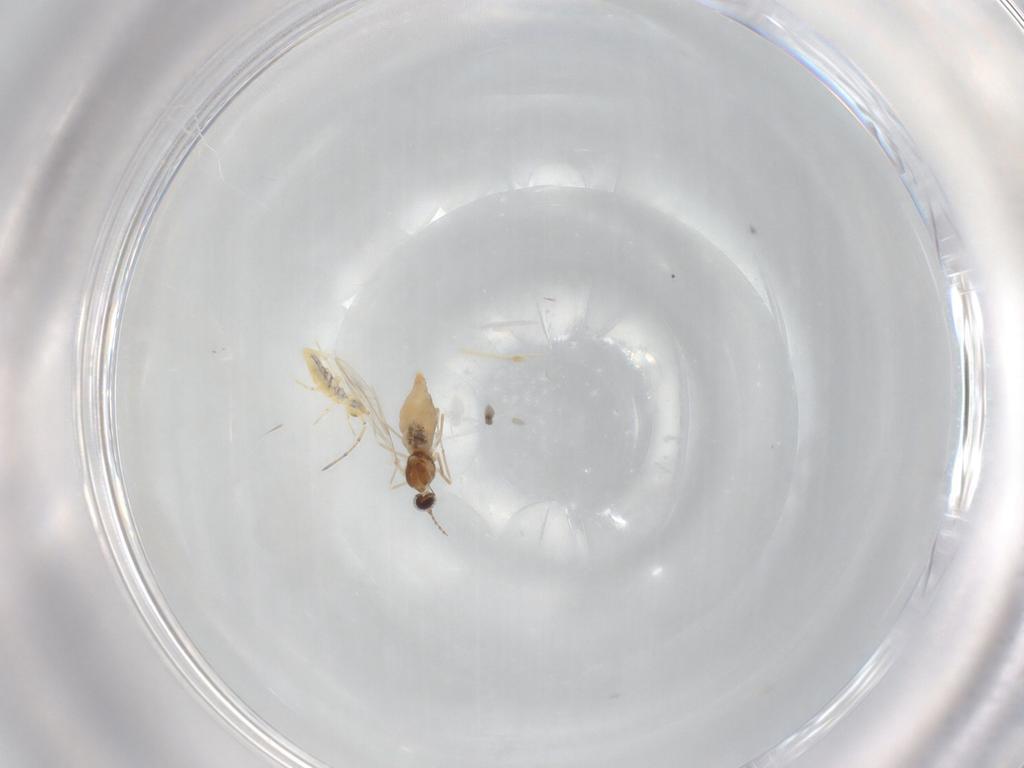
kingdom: Animalia
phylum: Arthropoda
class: Insecta
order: Diptera
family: Cecidomyiidae
